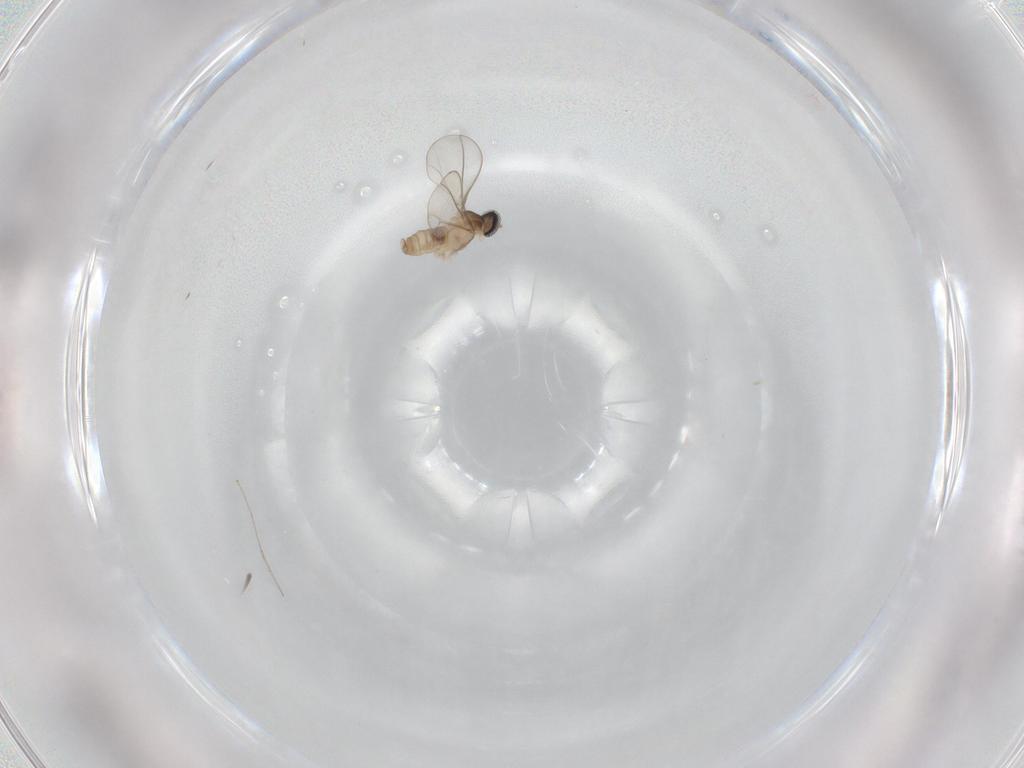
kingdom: Animalia
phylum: Arthropoda
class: Insecta
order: Diptera
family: Cecidomyiidae
